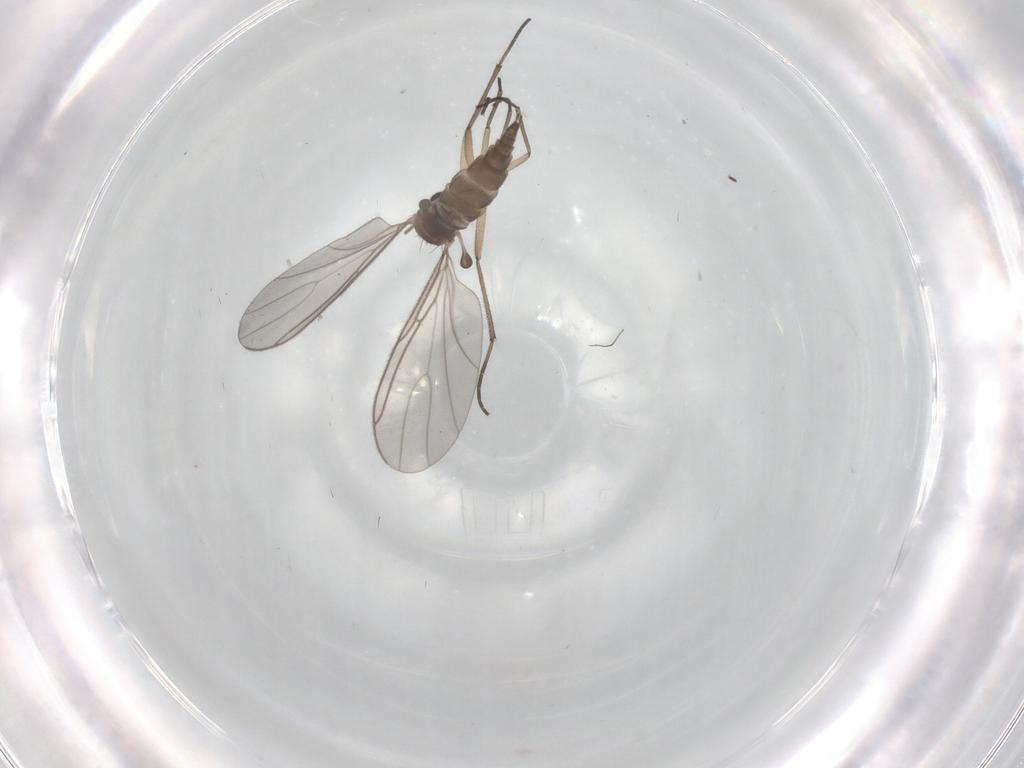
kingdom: Animalia
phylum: Arthropoda
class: Insecta
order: Diptera
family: Sciaridae
